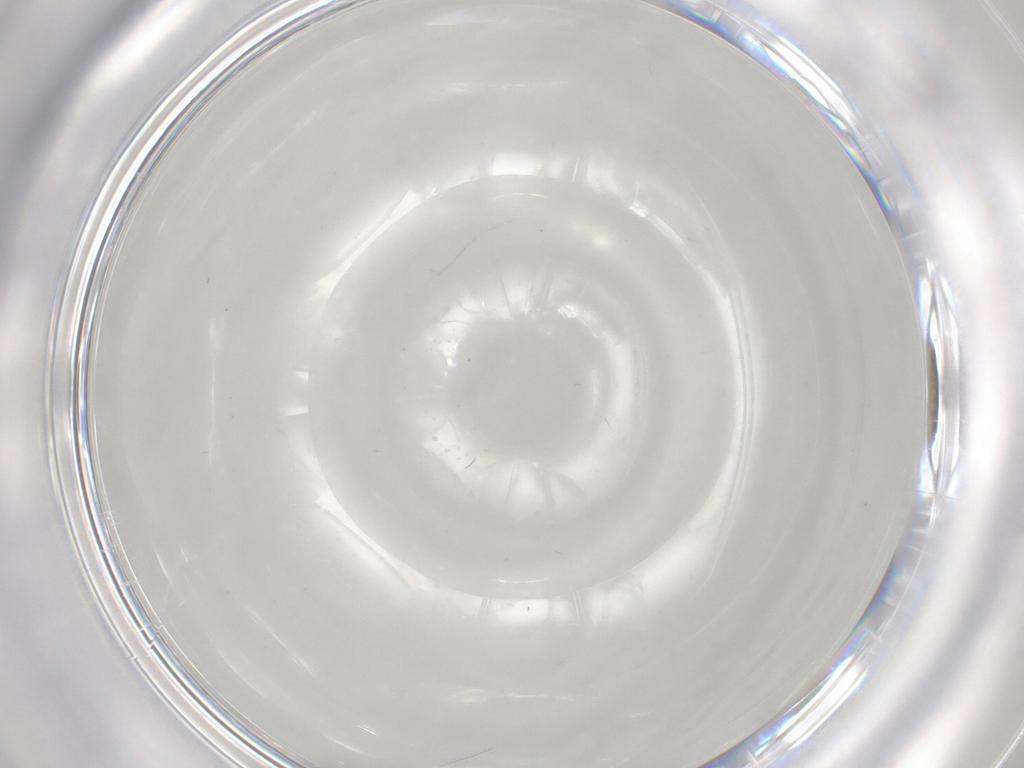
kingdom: Animalia
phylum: Arthropoda
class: Insecta
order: Diptera
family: Chironomidae
